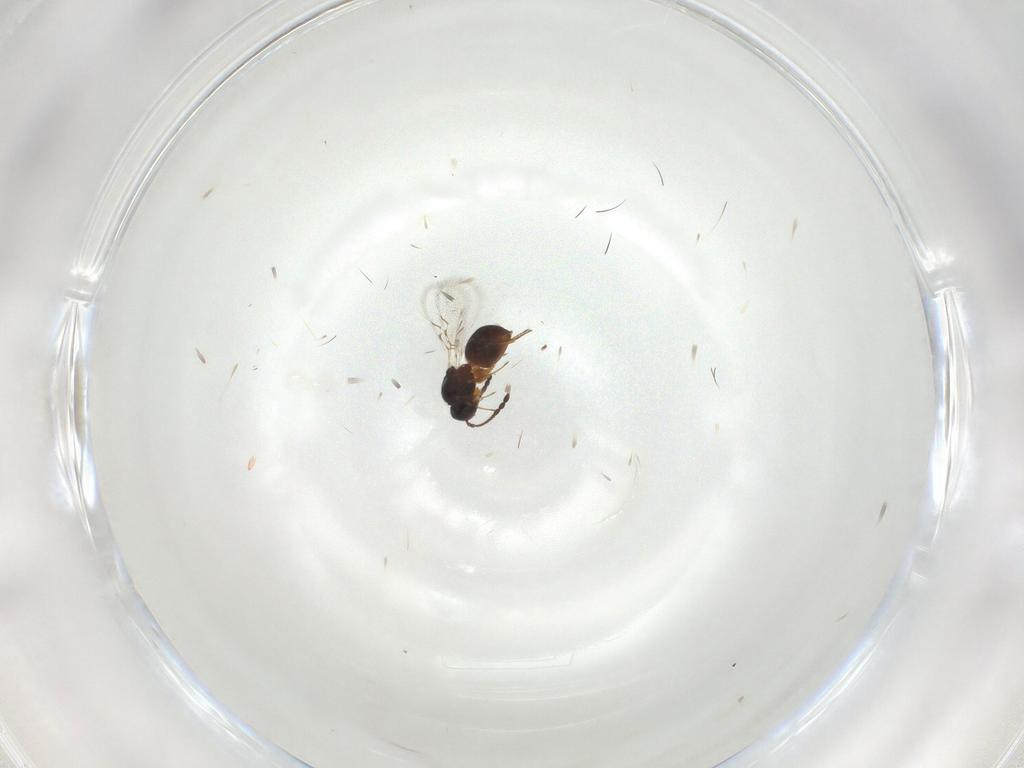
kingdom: Animalia
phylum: Arthropoda
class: Insecta
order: Hymenoptera
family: Figitidae
